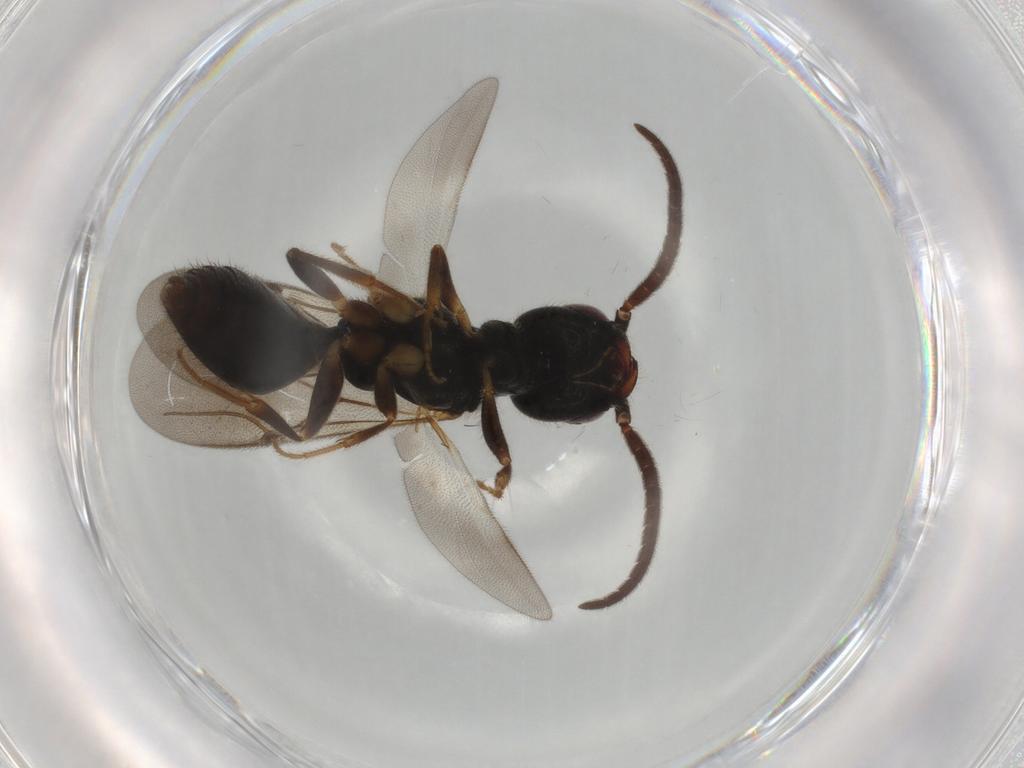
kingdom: Animalia
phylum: Arthropoda
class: Insecta
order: Hymenoptera
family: Bethylidae
